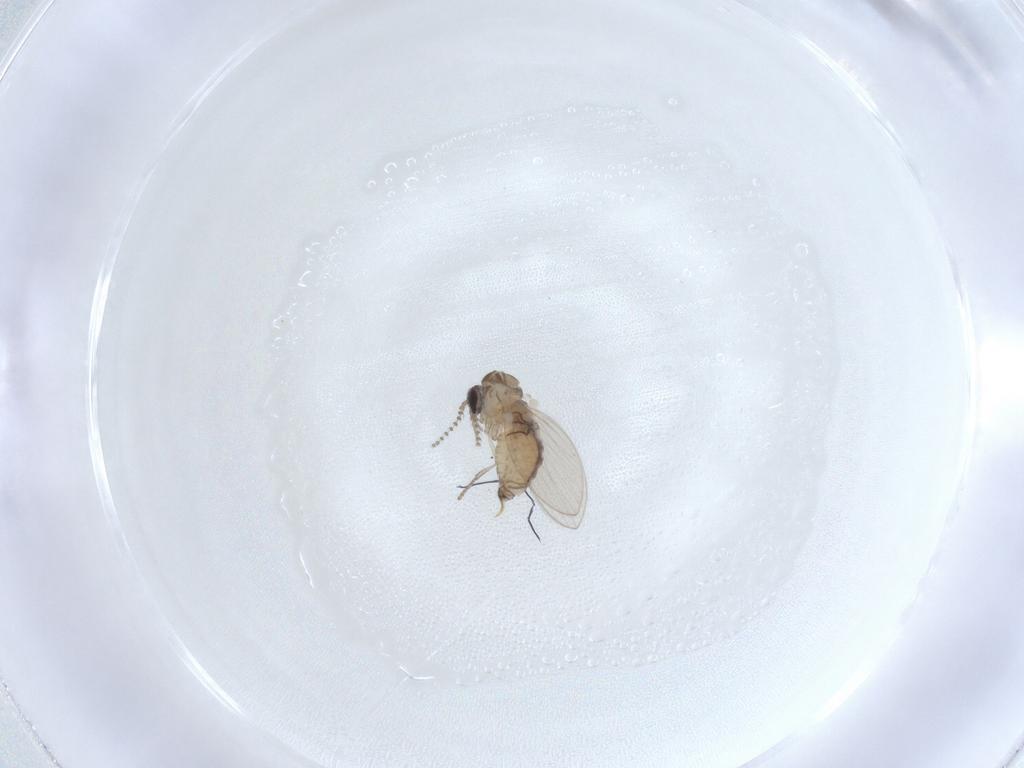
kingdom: Animalia
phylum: Arthropoda
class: Insecta
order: Diptera
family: Psychodidae
